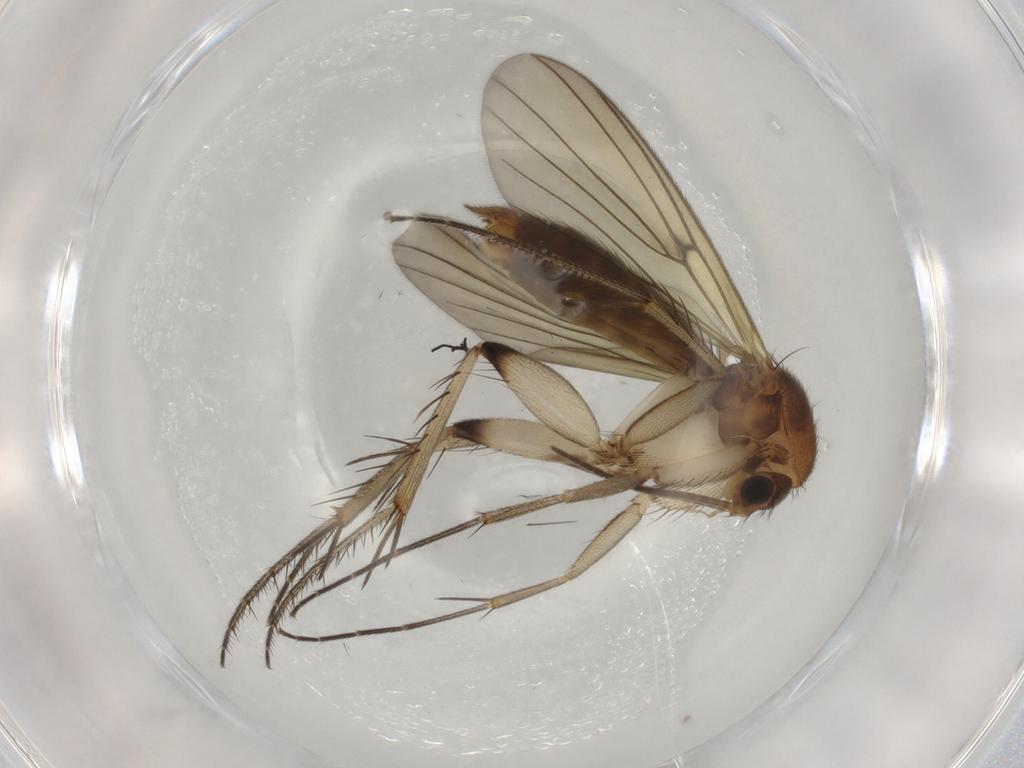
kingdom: Animalia
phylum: Arthropoda
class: Insecta
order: Diptera
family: Mycetophilidae
